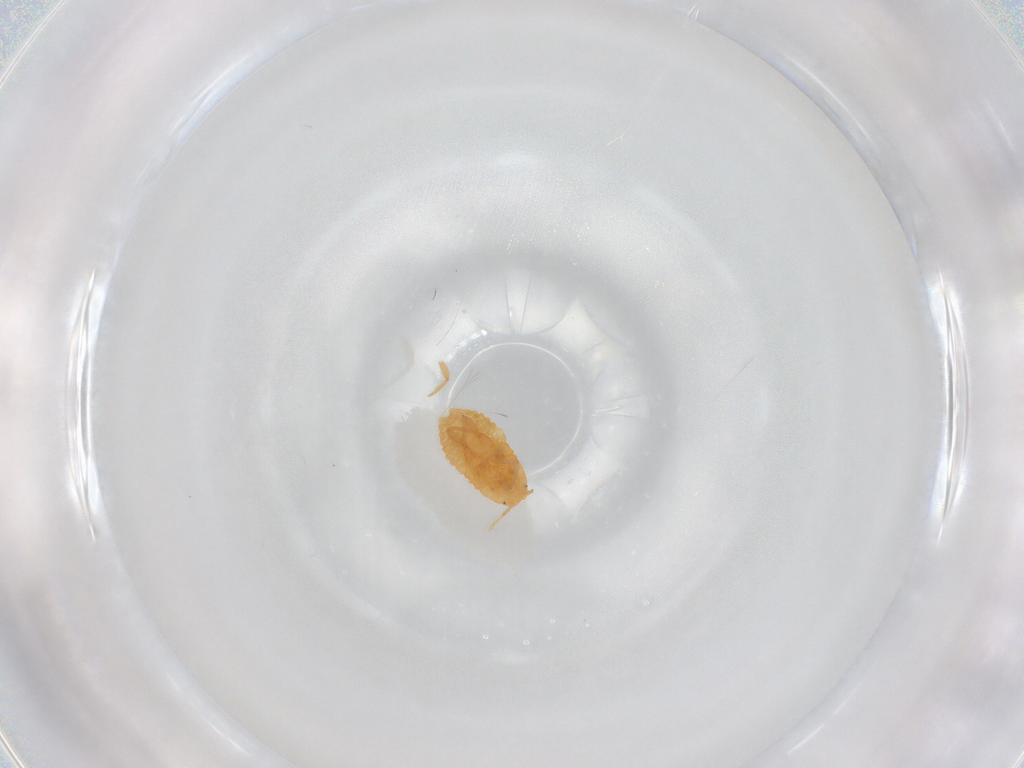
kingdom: Animalia
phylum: Arthropoda
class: Insecta
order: Hemiptera
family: Pseudococcidae
